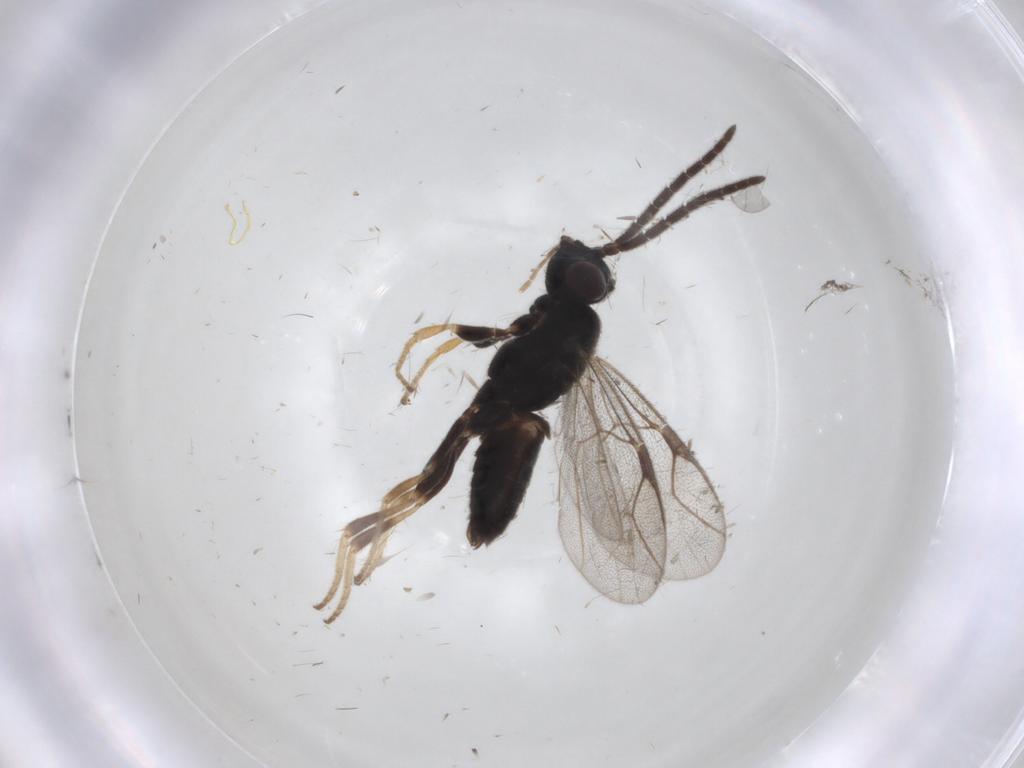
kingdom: Animalia
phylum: Arthropoda
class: Insecta
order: Hymenoptera
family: Dryinidae
